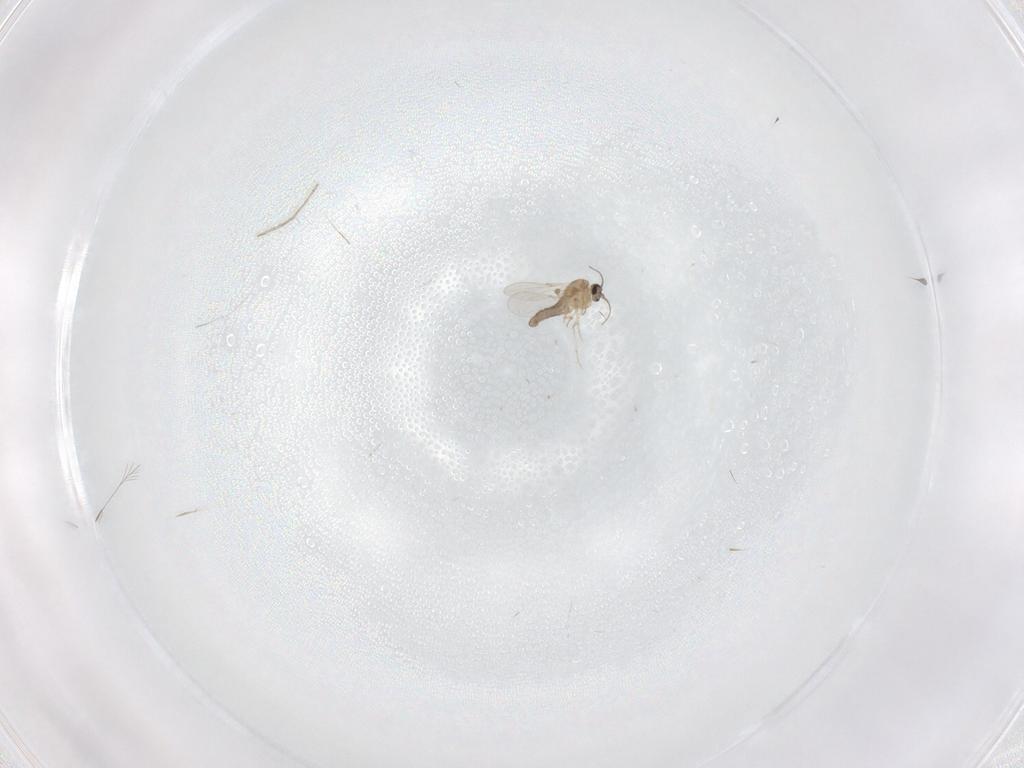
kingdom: Animalia
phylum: Arthropoda
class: Insecta
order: Diptera
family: Ceratopogonidae
